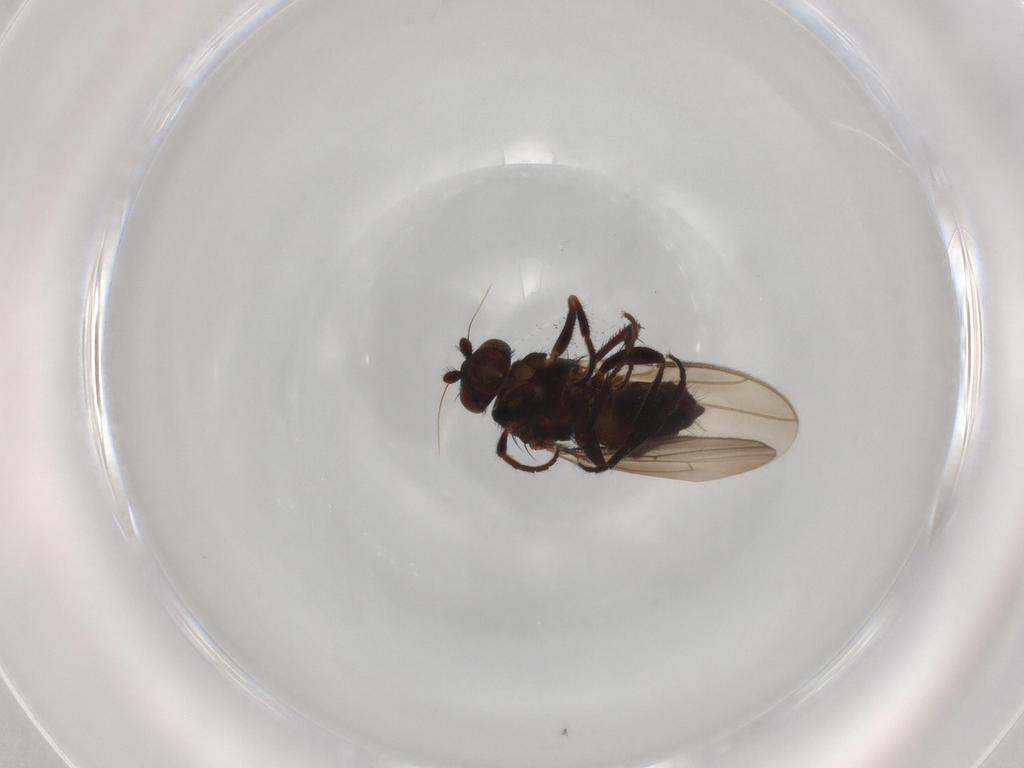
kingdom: Animalia
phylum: Arthropoda
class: Insecta
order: Diptera
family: Sphaeroceridae
